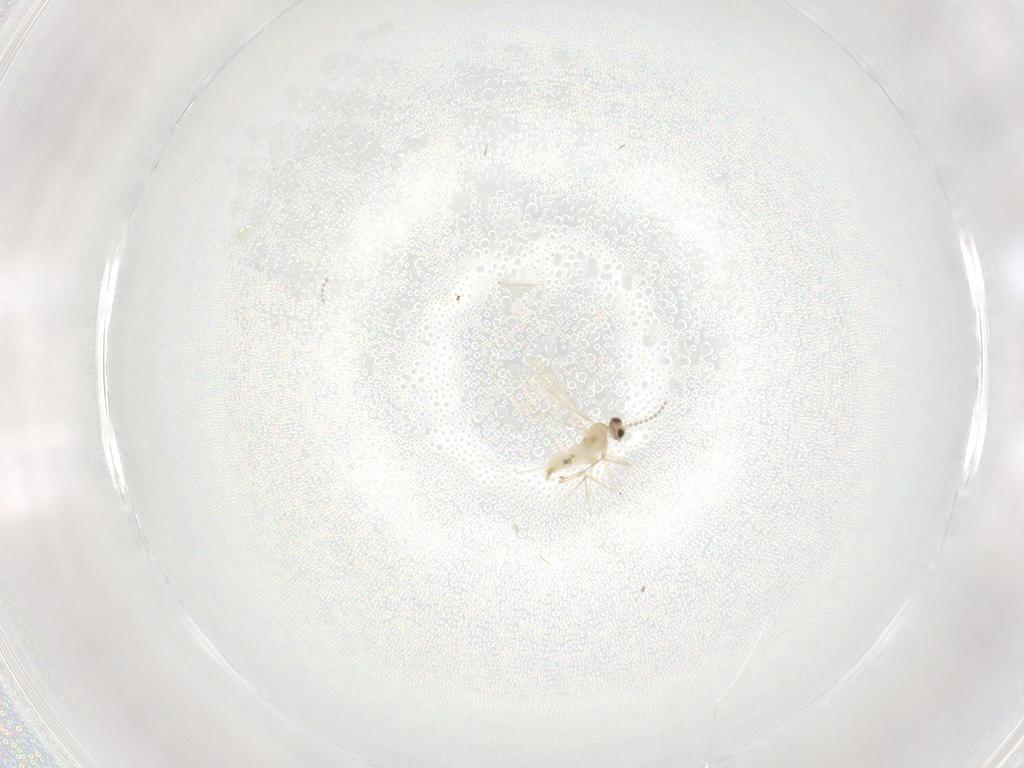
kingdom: Animalia
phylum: Arthropoda
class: Insecta
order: Diptera
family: Cecidomyiidae
